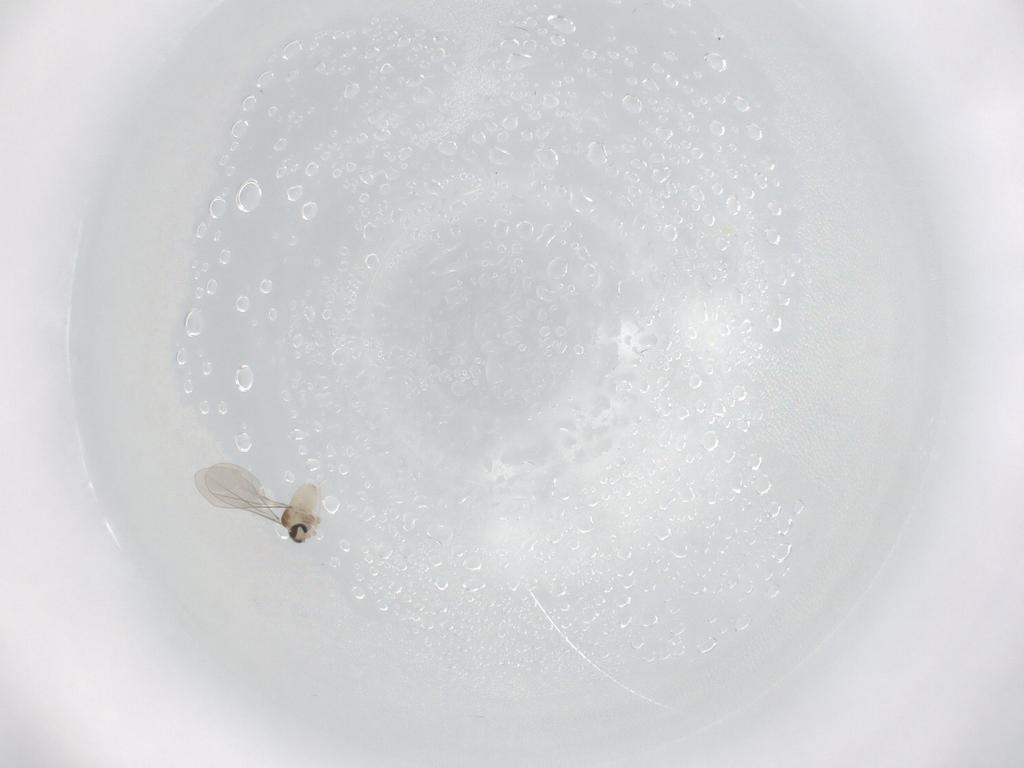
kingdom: Animalia
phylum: Arthropoda
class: Insecta
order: Diptera
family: Cecidomyiidae
